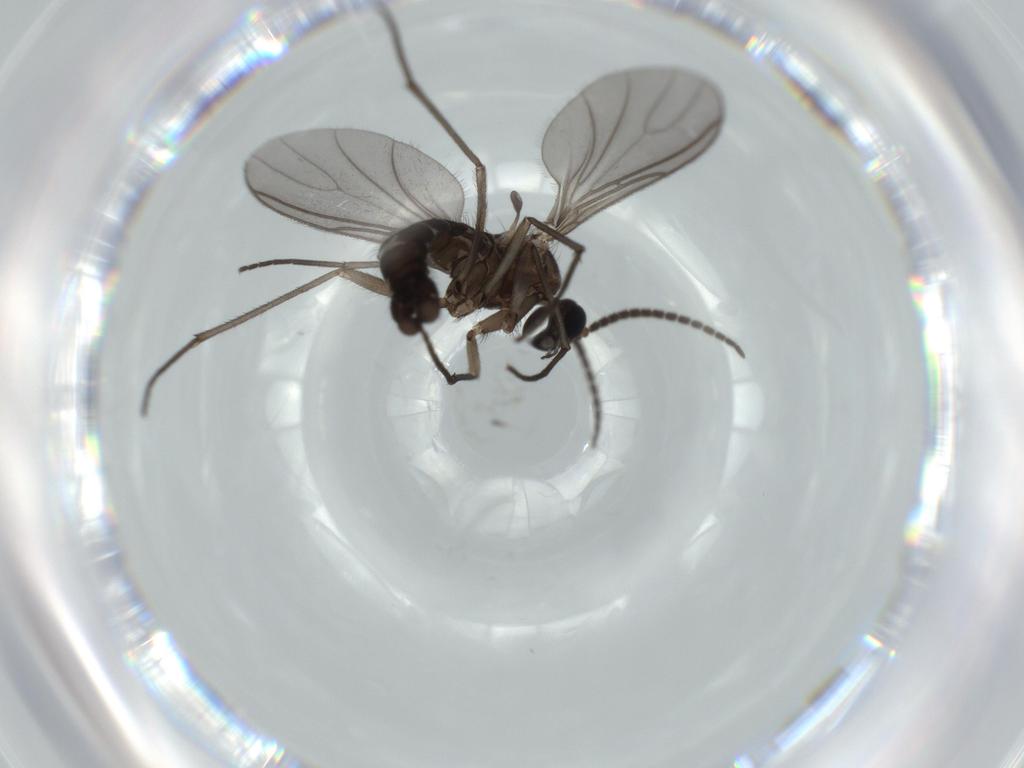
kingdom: Animalia
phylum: Arthropoda
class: Insecta
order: Diptera
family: Sciaridae
